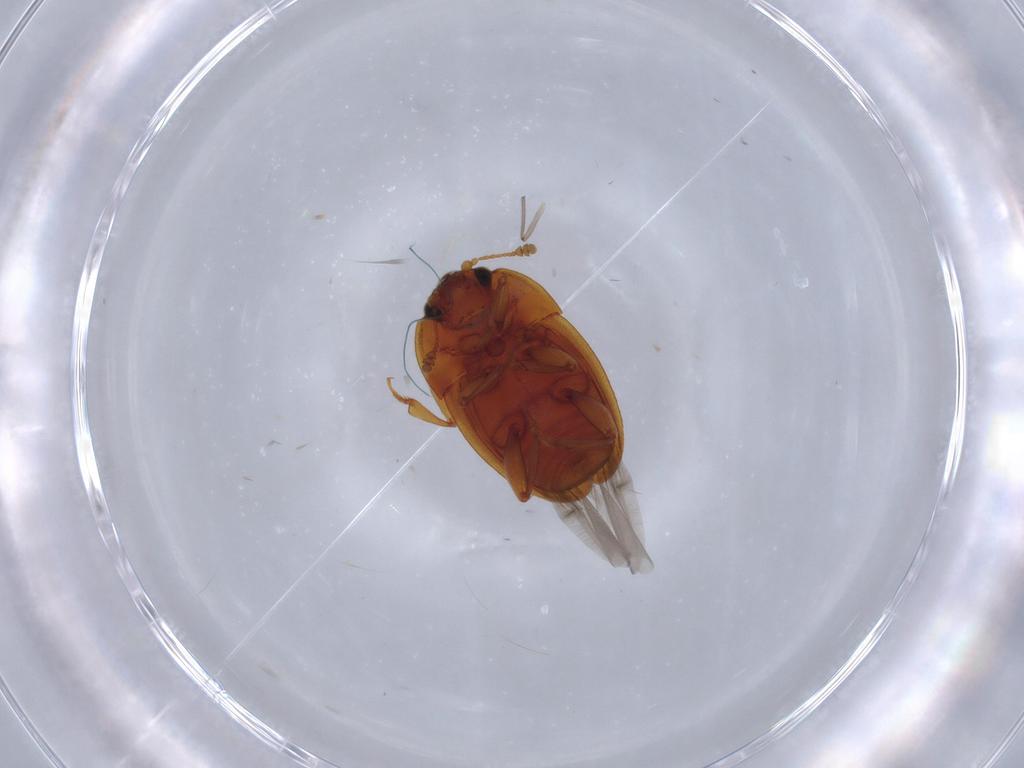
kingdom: Animalia
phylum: Arthropoda
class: Insecta
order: Coleoptera
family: Nitidulidae
